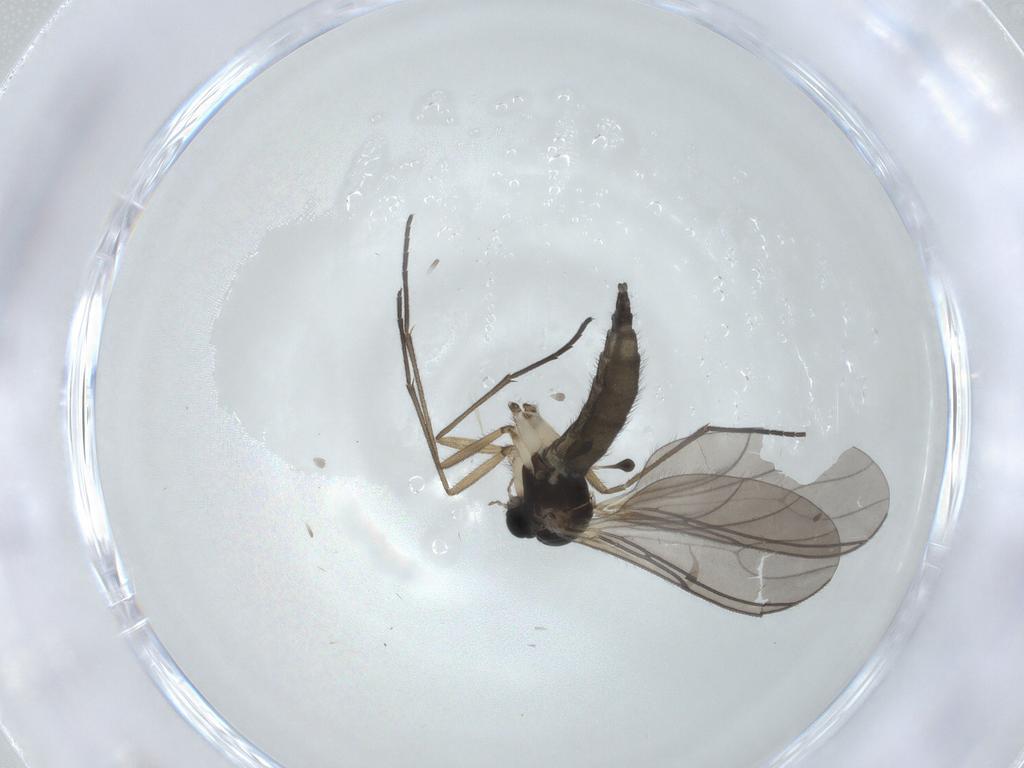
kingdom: Animalia
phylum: Arthropoda
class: Insecta
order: Diptera
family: Sciaridae
